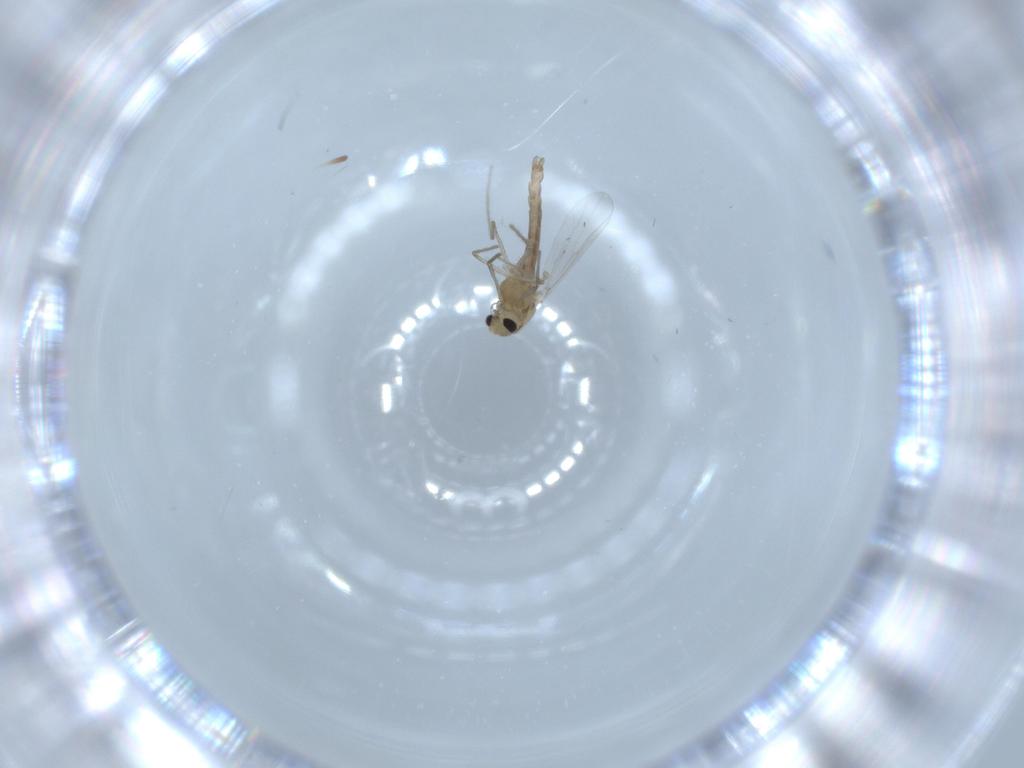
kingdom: Animalia
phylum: Arthropoda
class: Insecta
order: Diptera
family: Chironomidae
